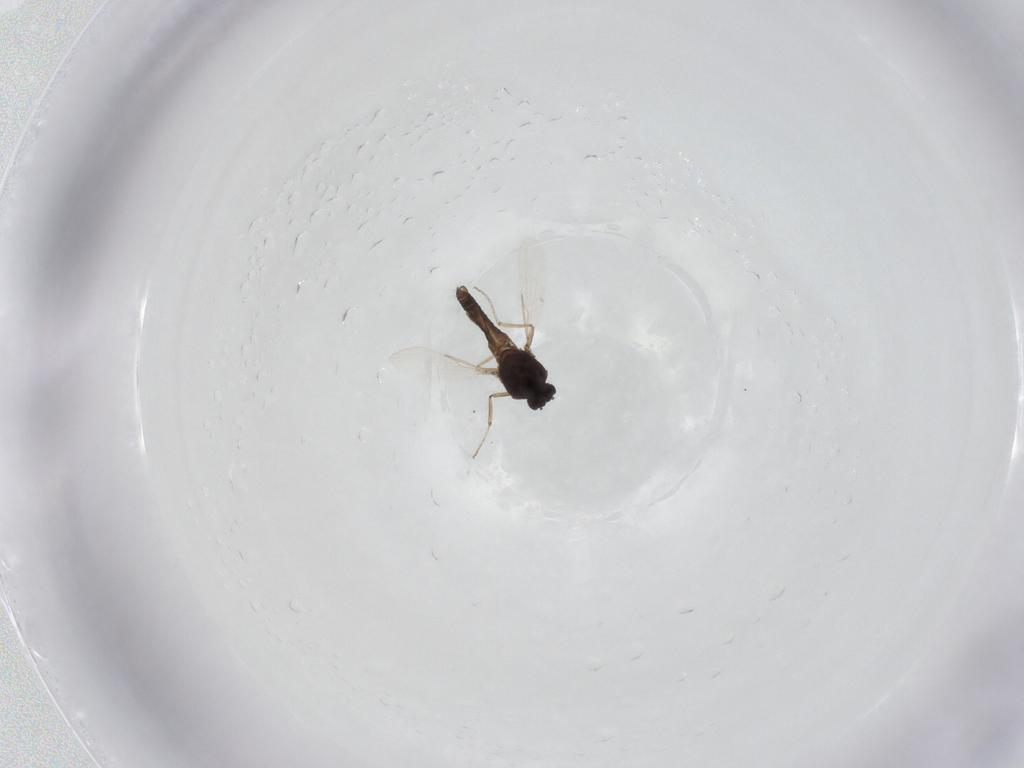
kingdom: Animalia
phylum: Arthropoda
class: Insecta
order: Diptera
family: Ceratopogonidae
